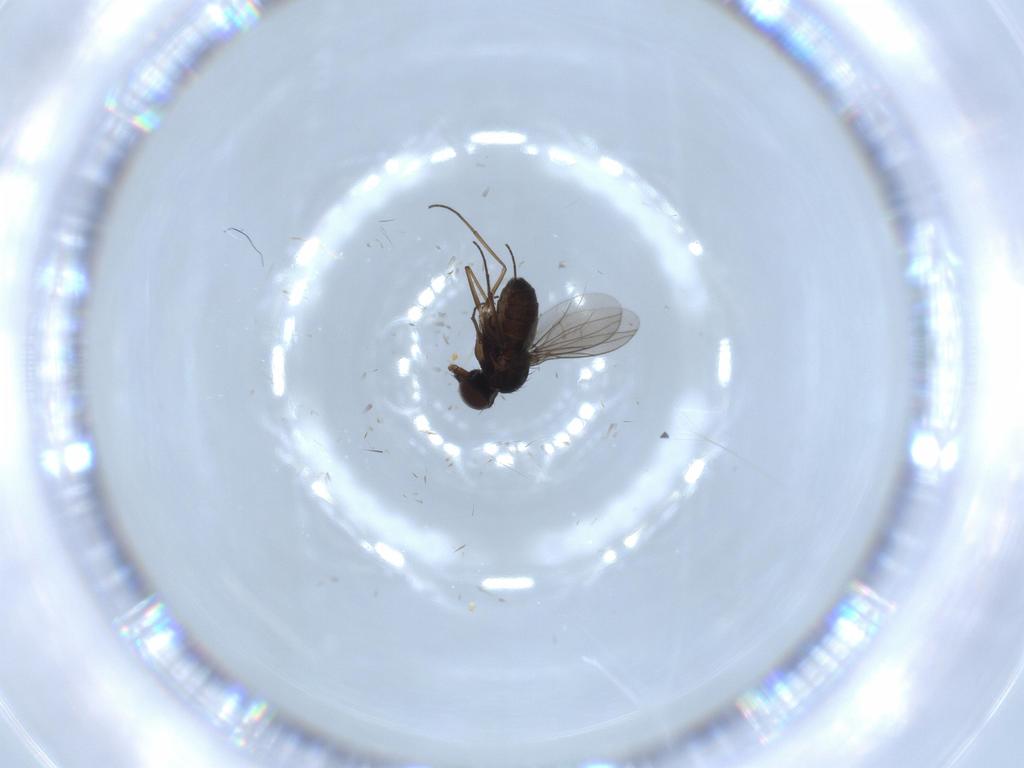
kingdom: Animalia
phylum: Arthropoda
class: Insecta
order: Diptera
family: Dolichopodidae
